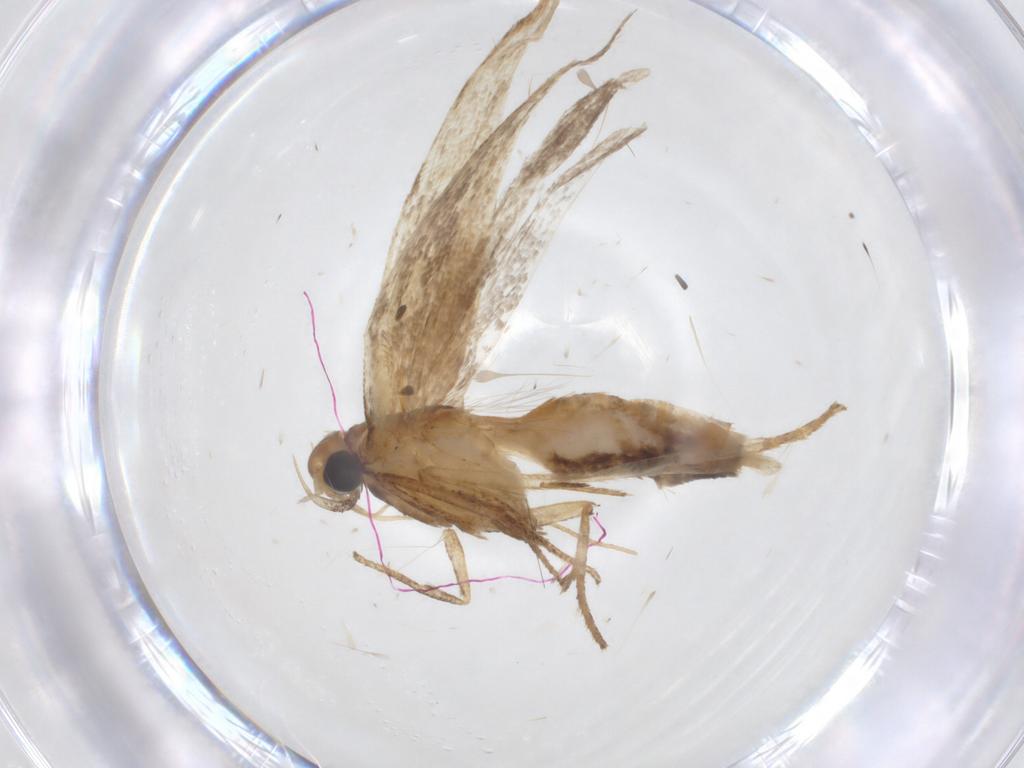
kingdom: Animalia
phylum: Arthropoda
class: Insecta
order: Lepidoptera
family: Gelechiidae
